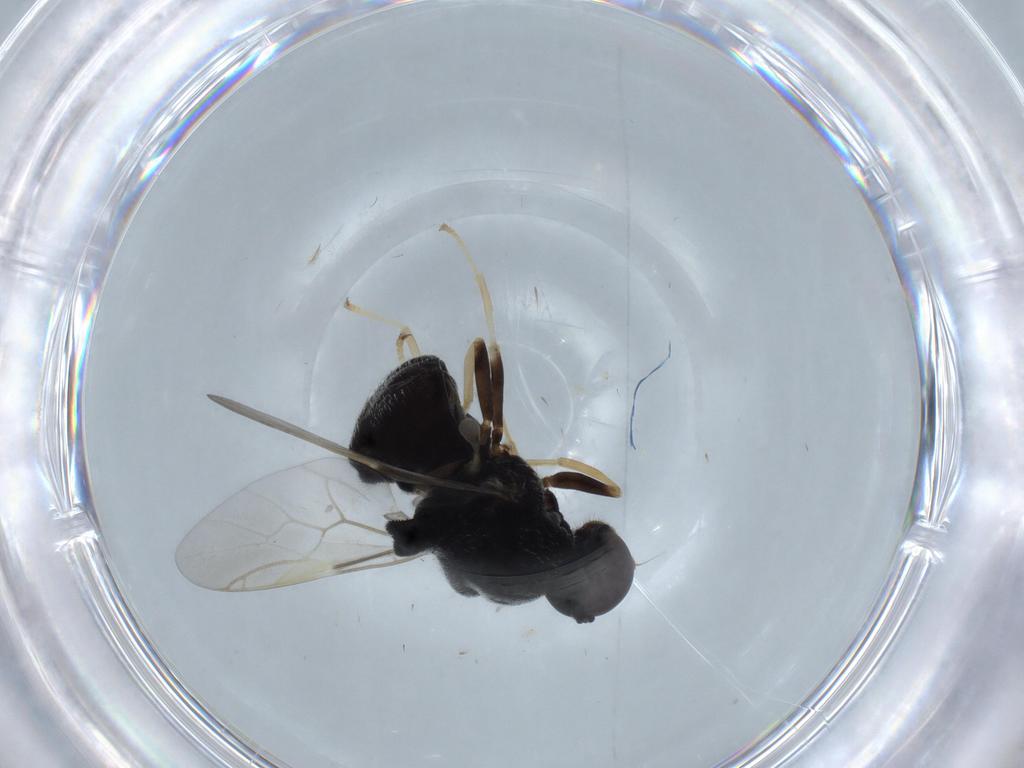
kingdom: Animalia
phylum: Arthropoda
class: Insecta
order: Diptera
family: Stratiomyidae
